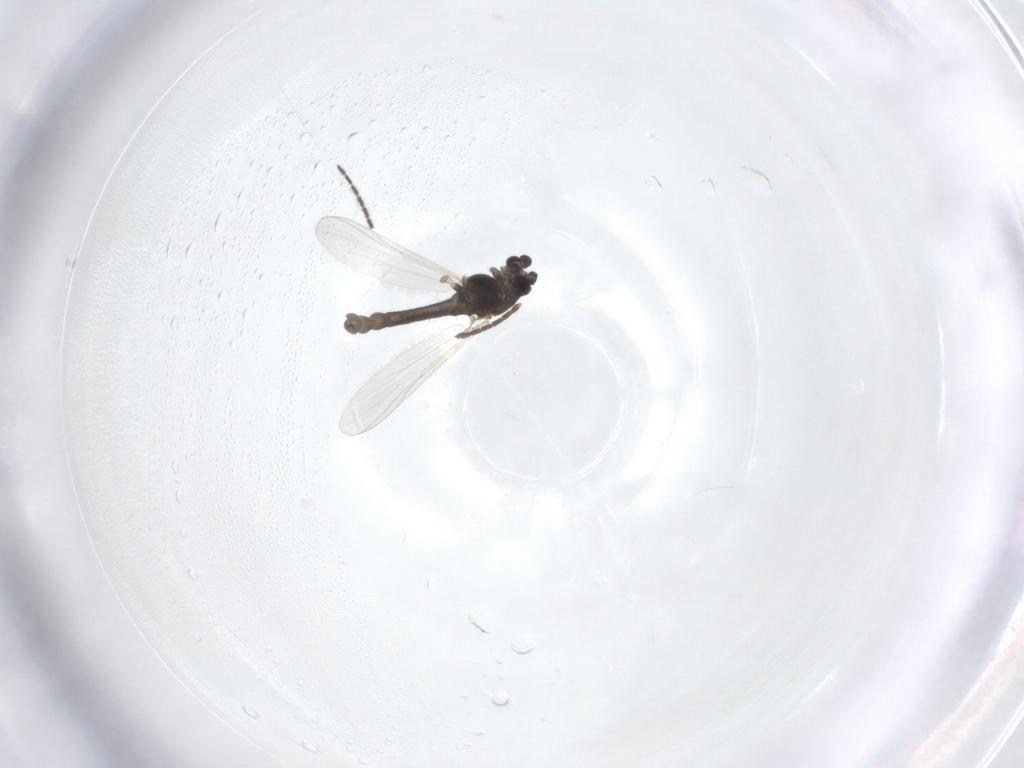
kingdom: Animalia
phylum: Arthropoda
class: Insecta
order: Diptera
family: Chironomidae
